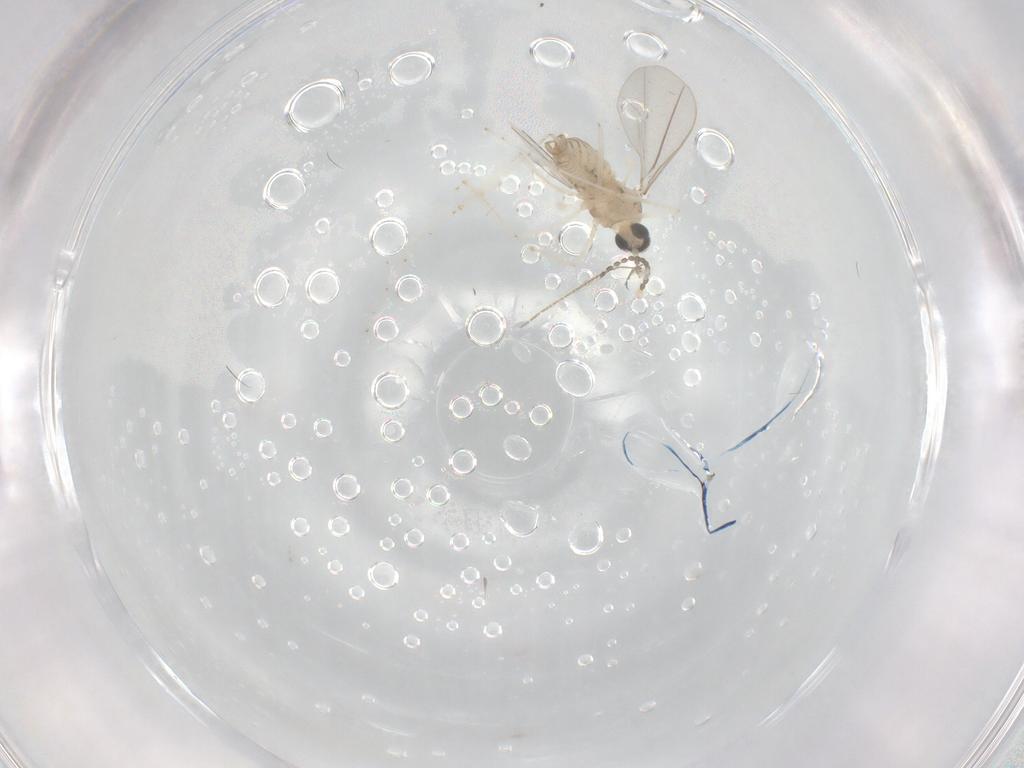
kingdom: Animalia
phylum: Arthropoda
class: Insecta
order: Diptera
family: Cecidomyiidae
